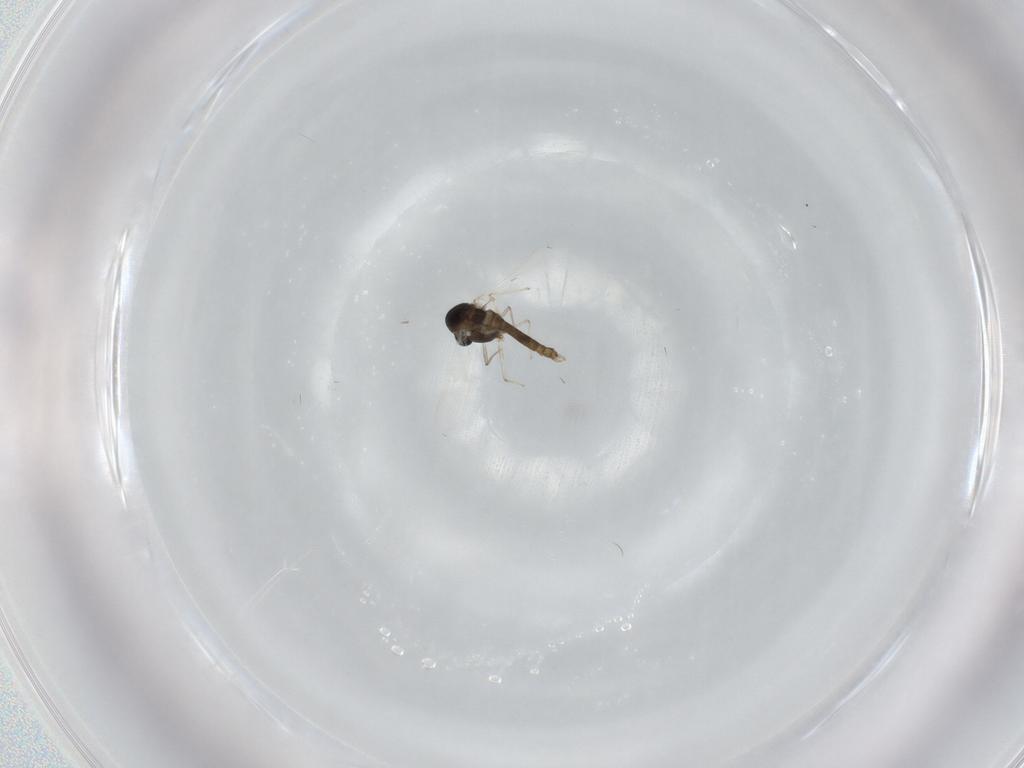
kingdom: Animalia
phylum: Arthropoda
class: Insecta
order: Diptera
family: Chironomidae
